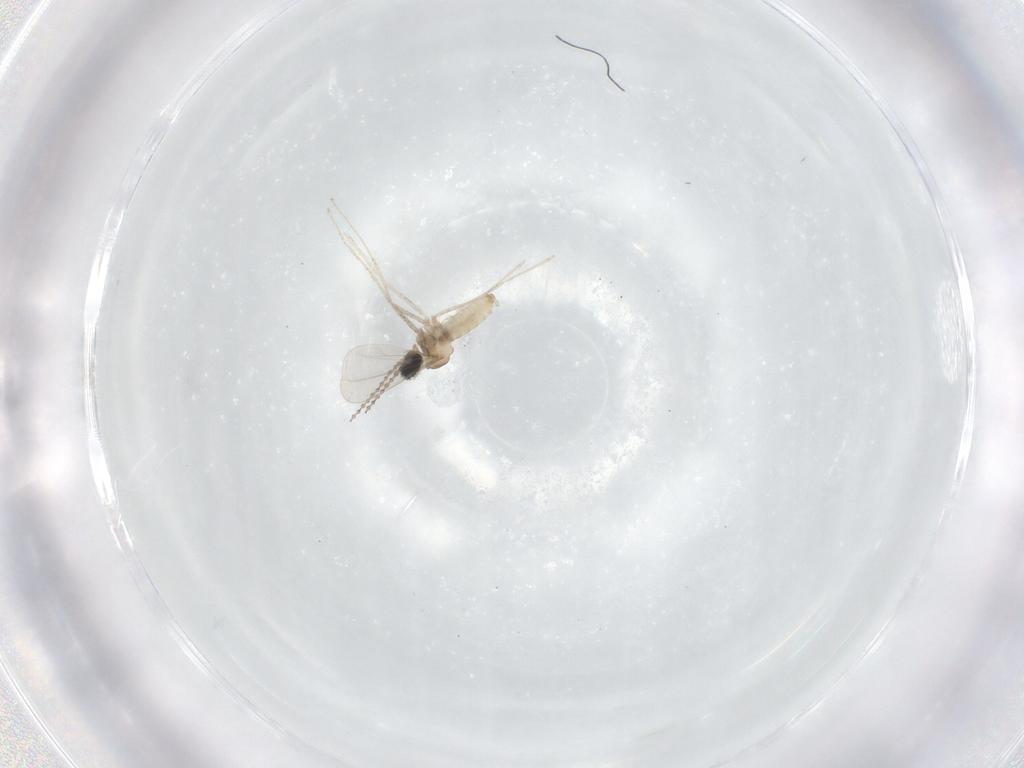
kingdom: Animalia
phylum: Arthropoda
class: Insecta
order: Diptera
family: Cecidomyiidae
